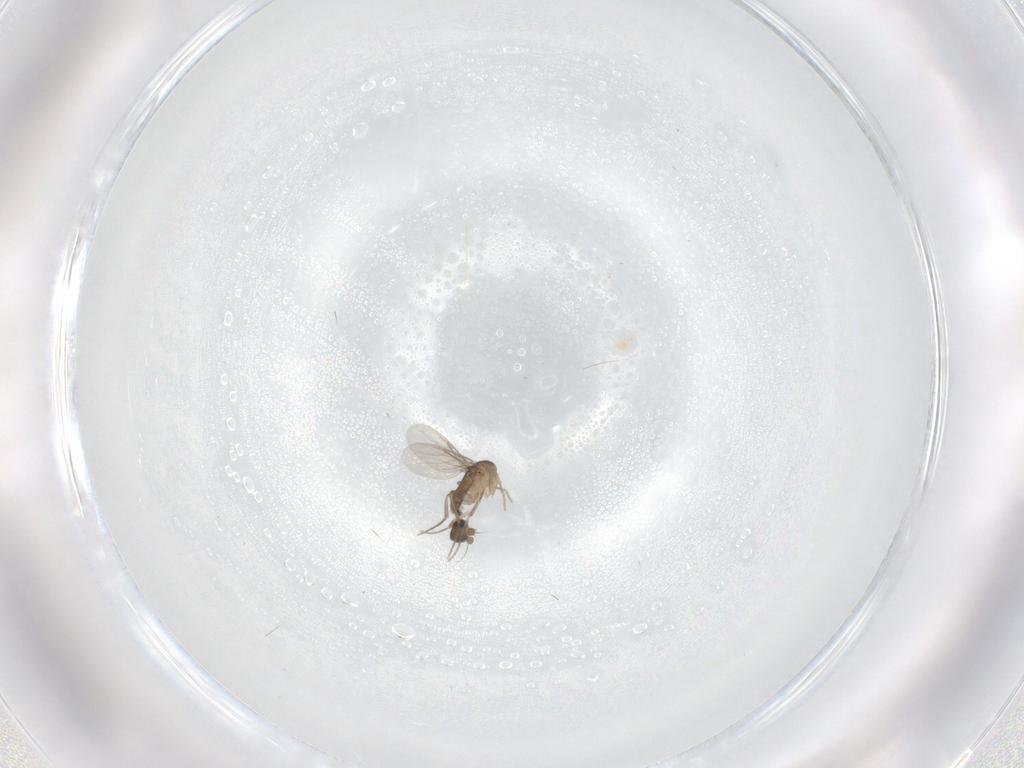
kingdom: Animalia
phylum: Arthropoda
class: Insecta
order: Diptera
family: Phoridae
